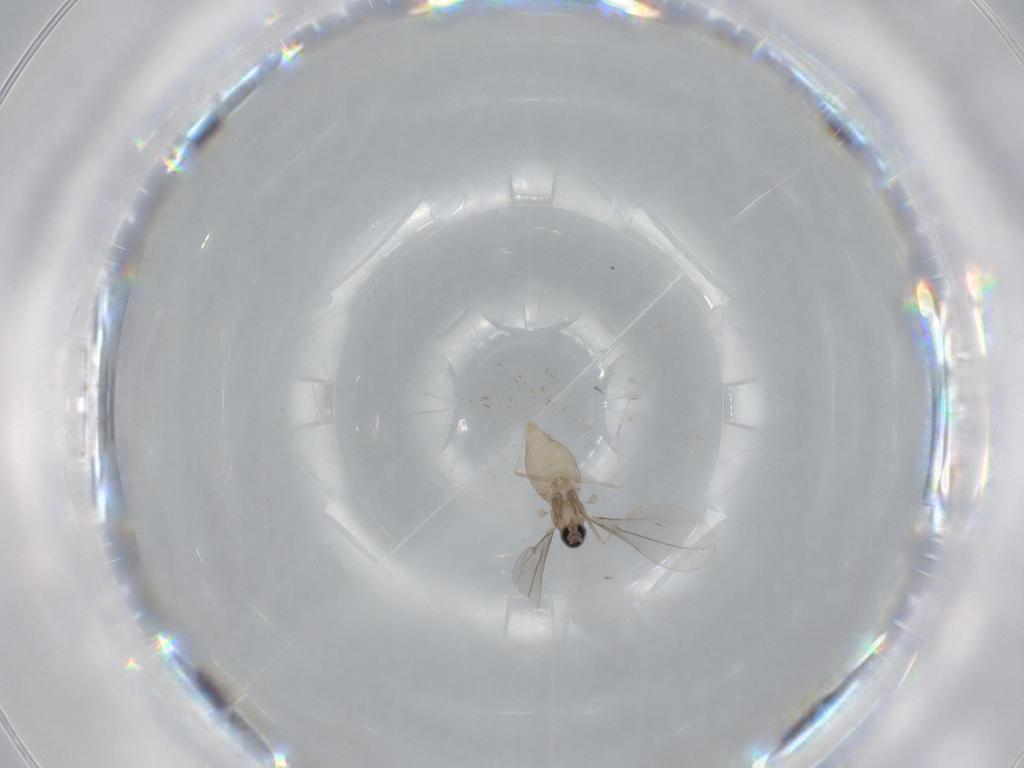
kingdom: Animalia
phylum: Arthropoda
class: Insecta
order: Diptera
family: Cecidomyiidae
